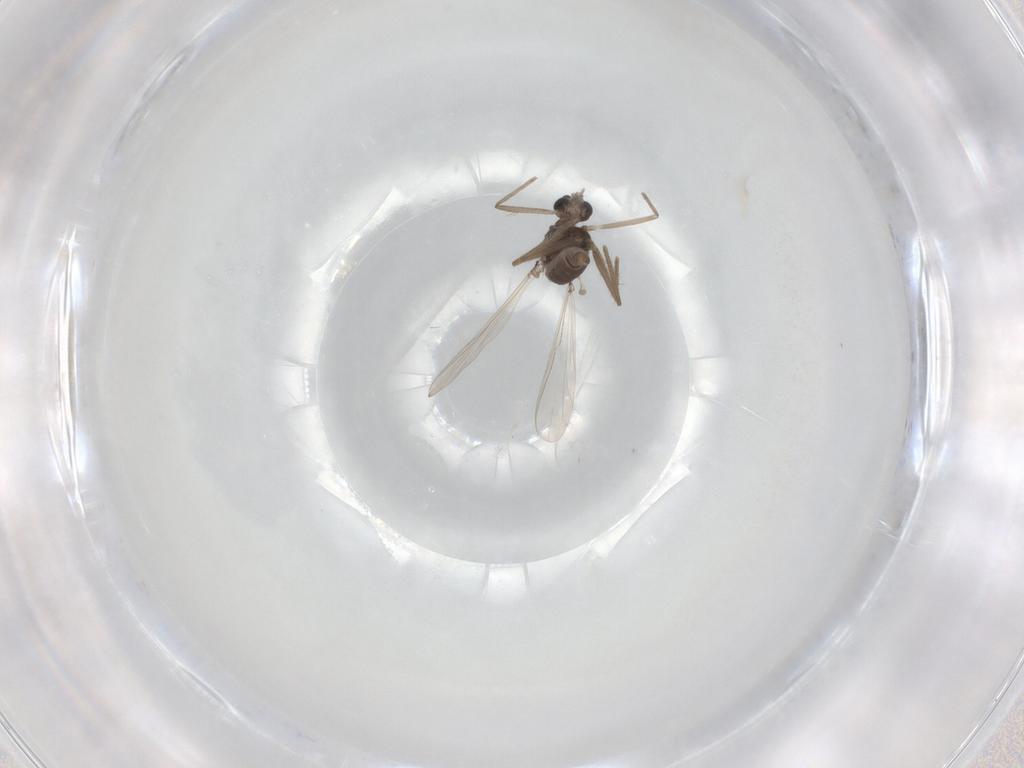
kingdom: Animalia
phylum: Arthropoda
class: Insecta
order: Diptera
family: Chironomidae
